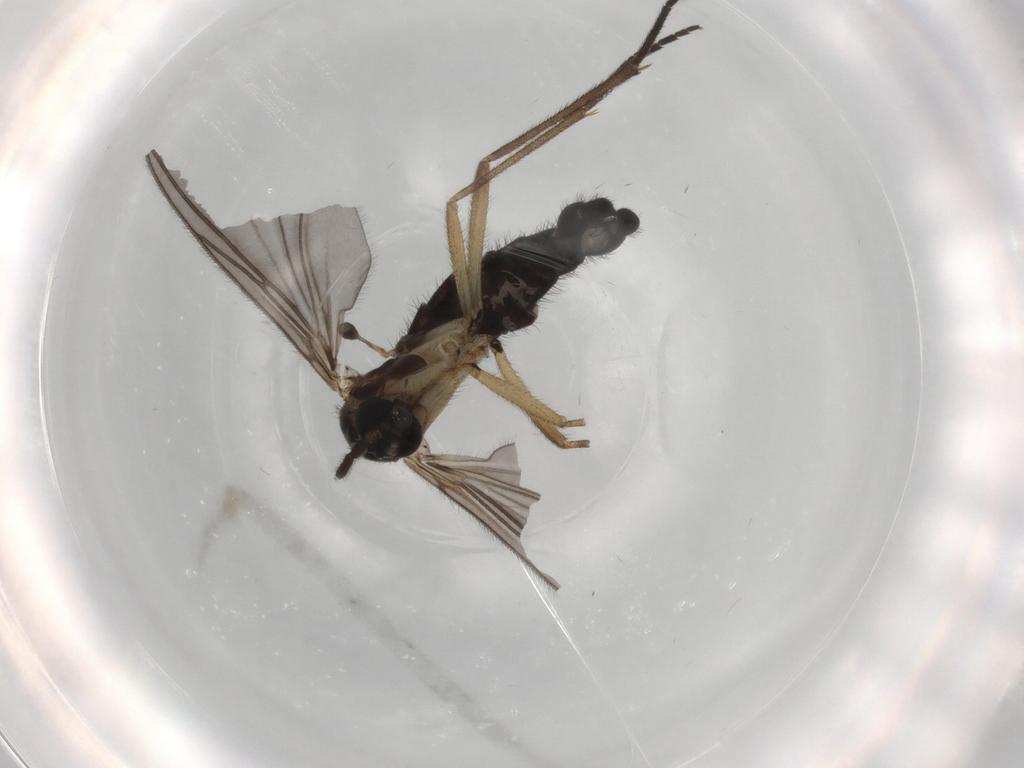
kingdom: Animalia
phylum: Arthropoda
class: Insecta
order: Diptera
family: Sciaridae
